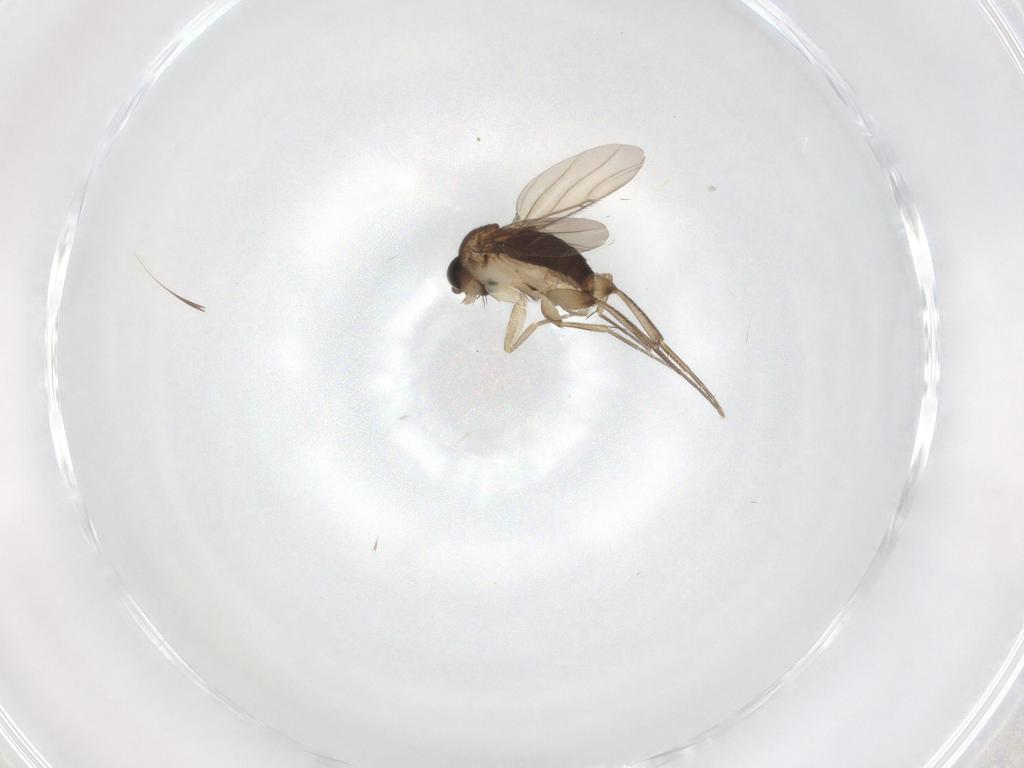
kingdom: Animalia
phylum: Arthropoda
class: Insecta
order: Diptera
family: Phoridae
